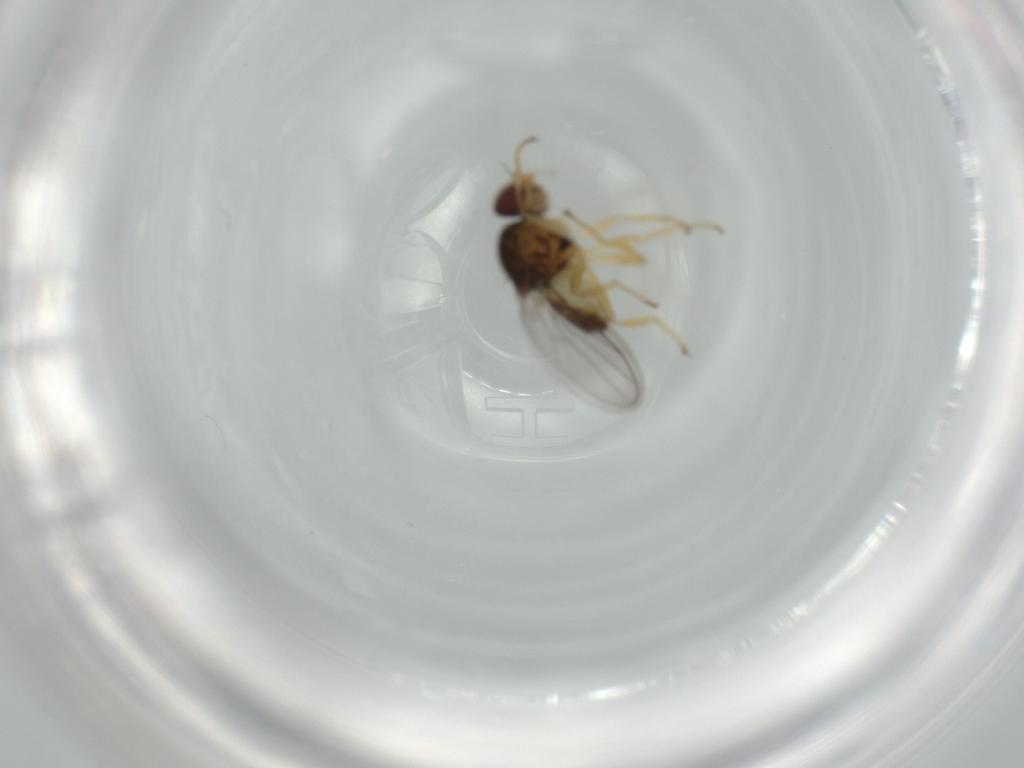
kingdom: Animalia
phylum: Arthropoda
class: Insecta
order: Diptera
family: Chloropidae
